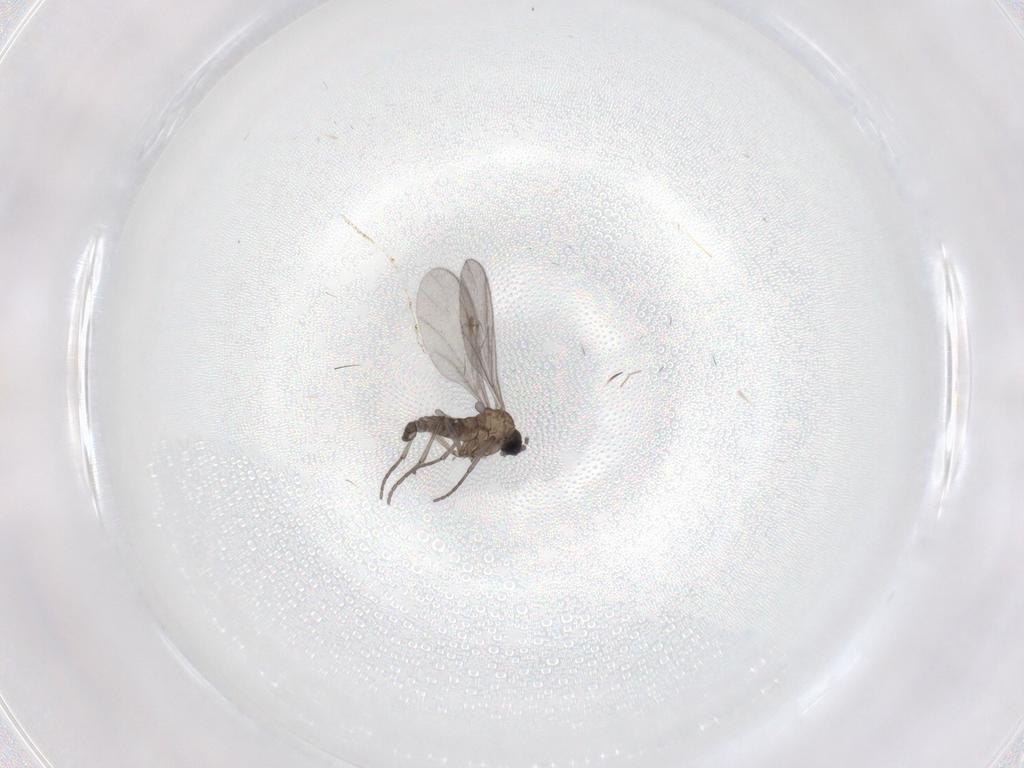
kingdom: Animalia
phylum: Arthropoda
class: Insecta
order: Diptera
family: Sciaridae
